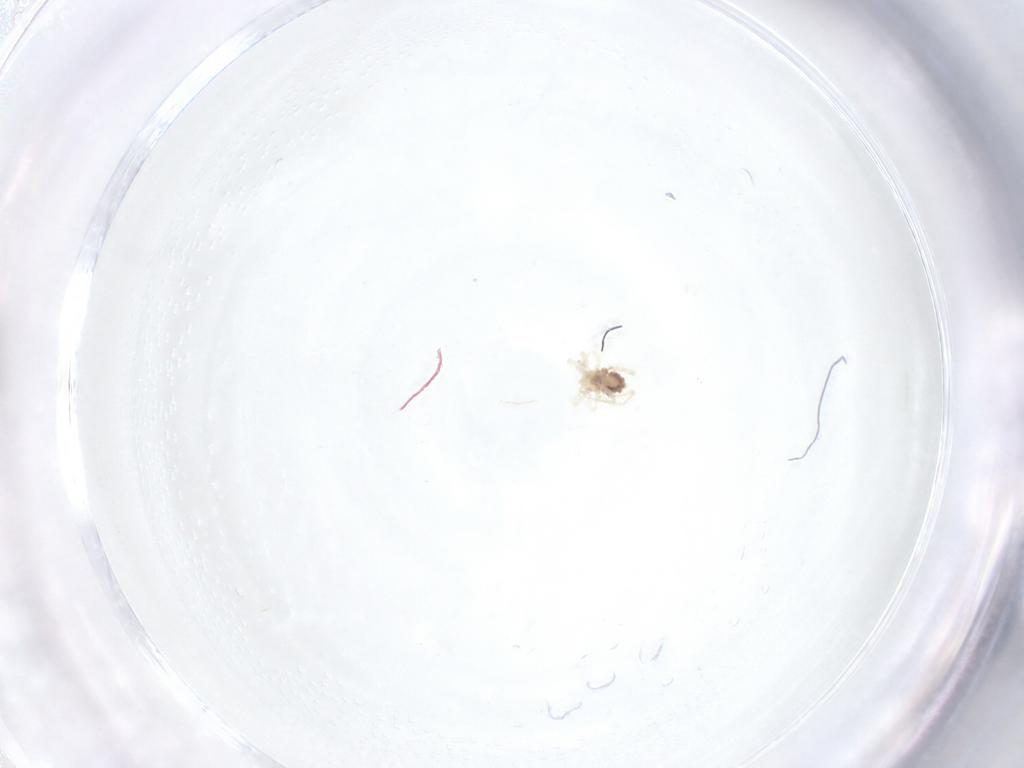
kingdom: Animalia
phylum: Arthropoda
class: Arachnida
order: Trombidiformes
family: Anystidae
